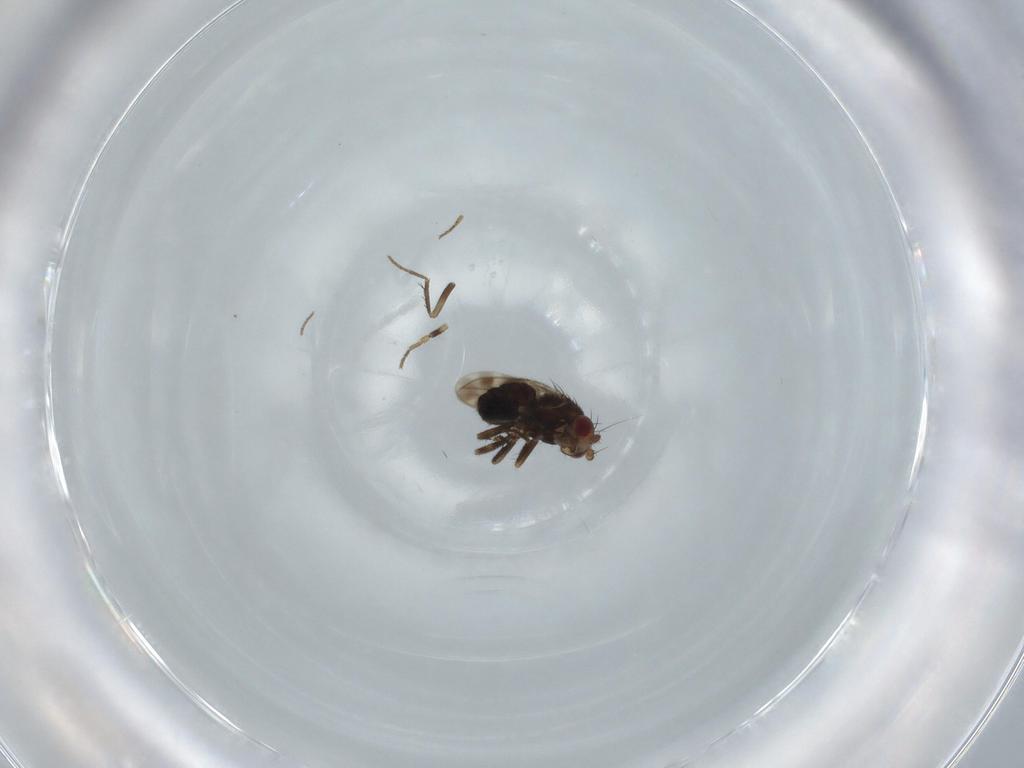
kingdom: Animalia
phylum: Arthropoda
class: Insecta
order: Diptera
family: Sphaeroceridae
